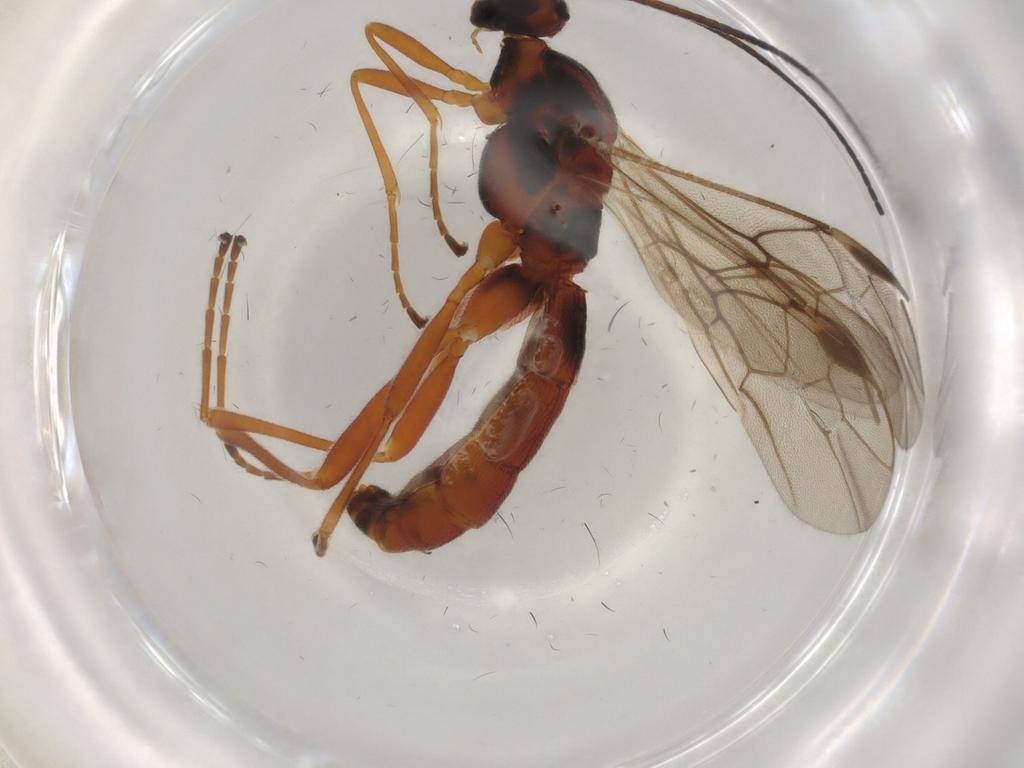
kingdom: Animalia
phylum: Arthropoda
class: Insecta
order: Hymenoptera
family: Braconidae
